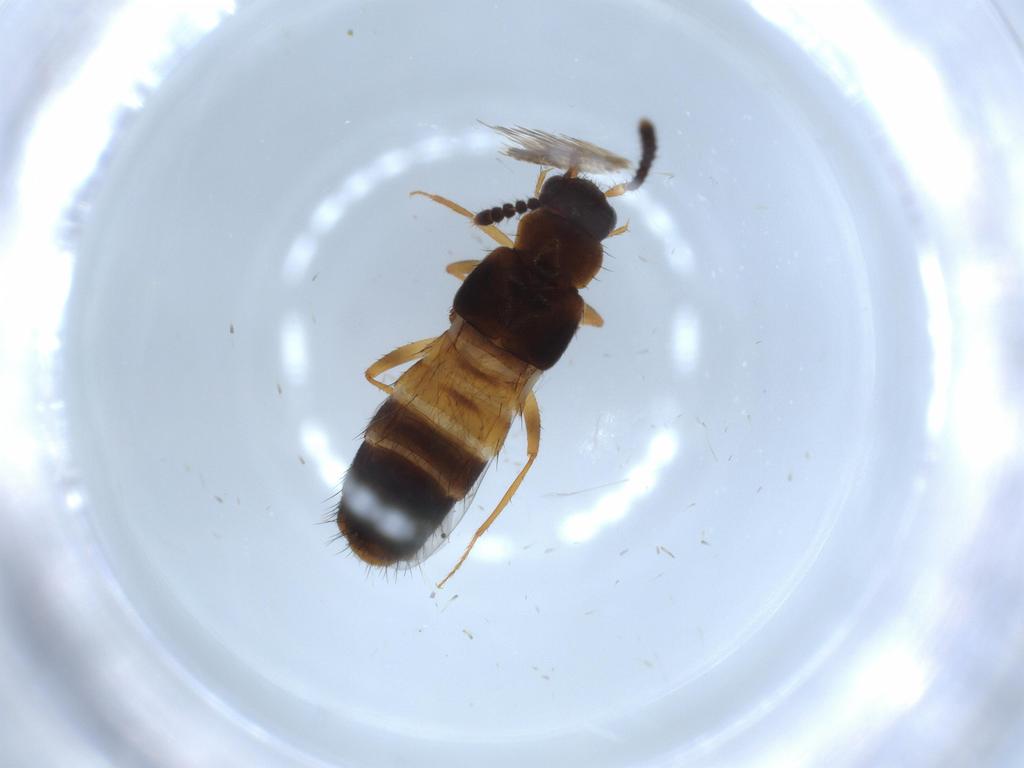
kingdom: Animalia
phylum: Arthropoda
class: Insecta
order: Coleoptera
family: Staphylinidae
